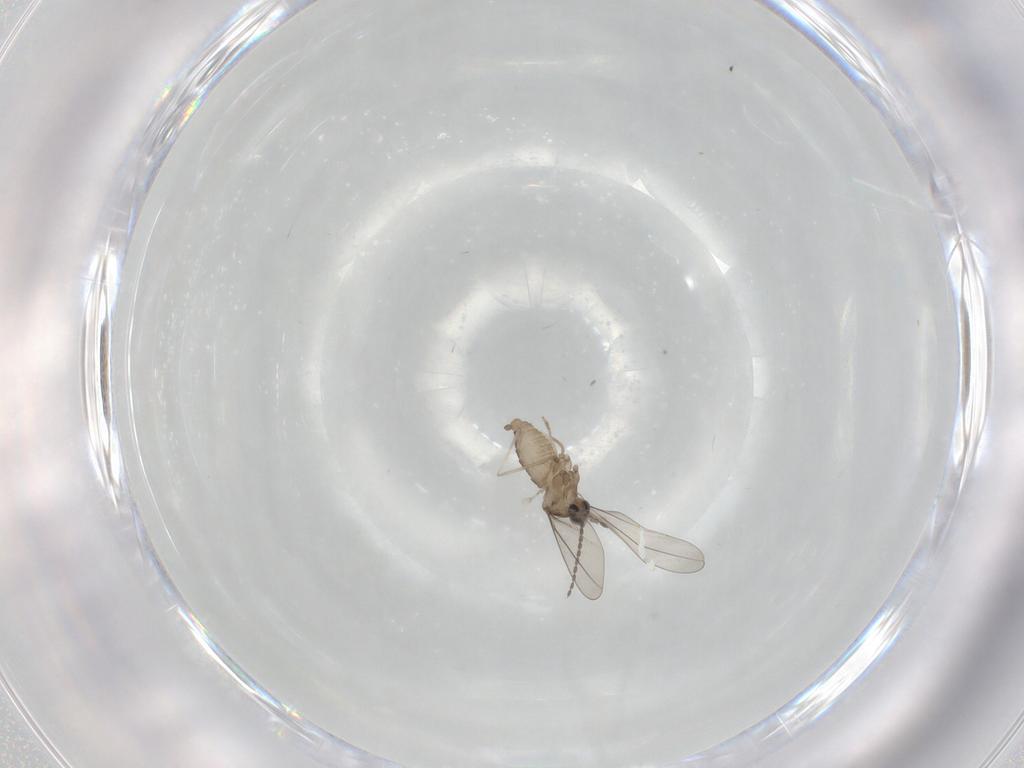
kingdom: Animalia
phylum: Arthropoda
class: Insecta
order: Diptera
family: Cecidomyiidae
